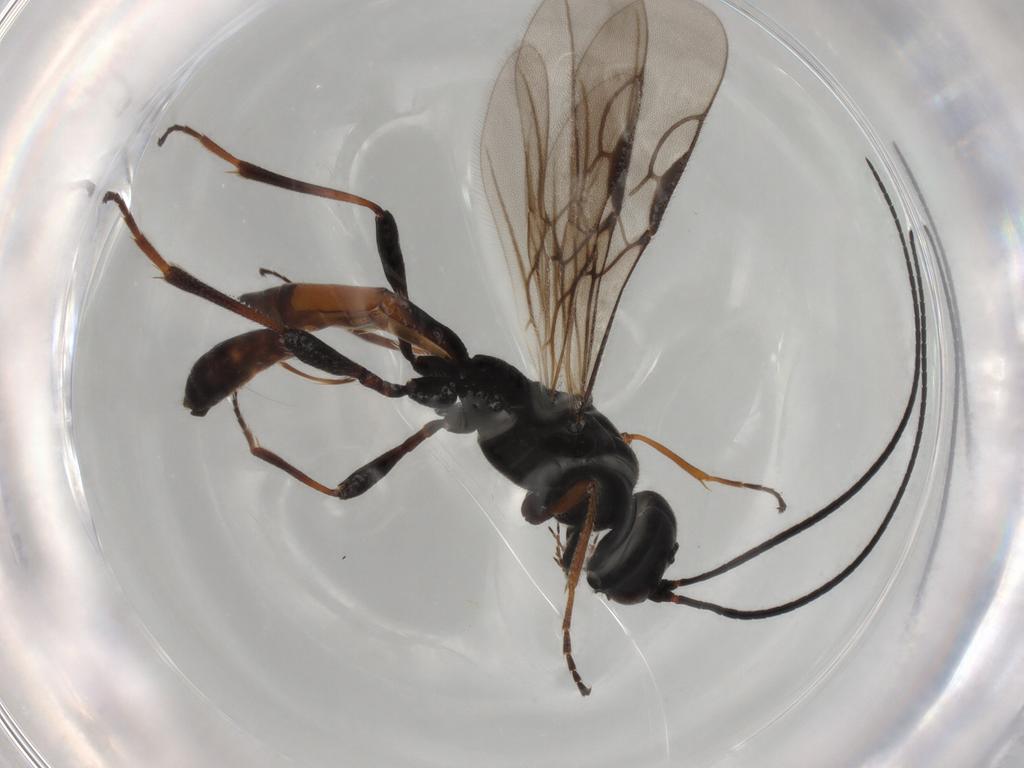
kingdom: Animalia
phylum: Arthropoda
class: Insecta
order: Hymenoptera
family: Braconidae
